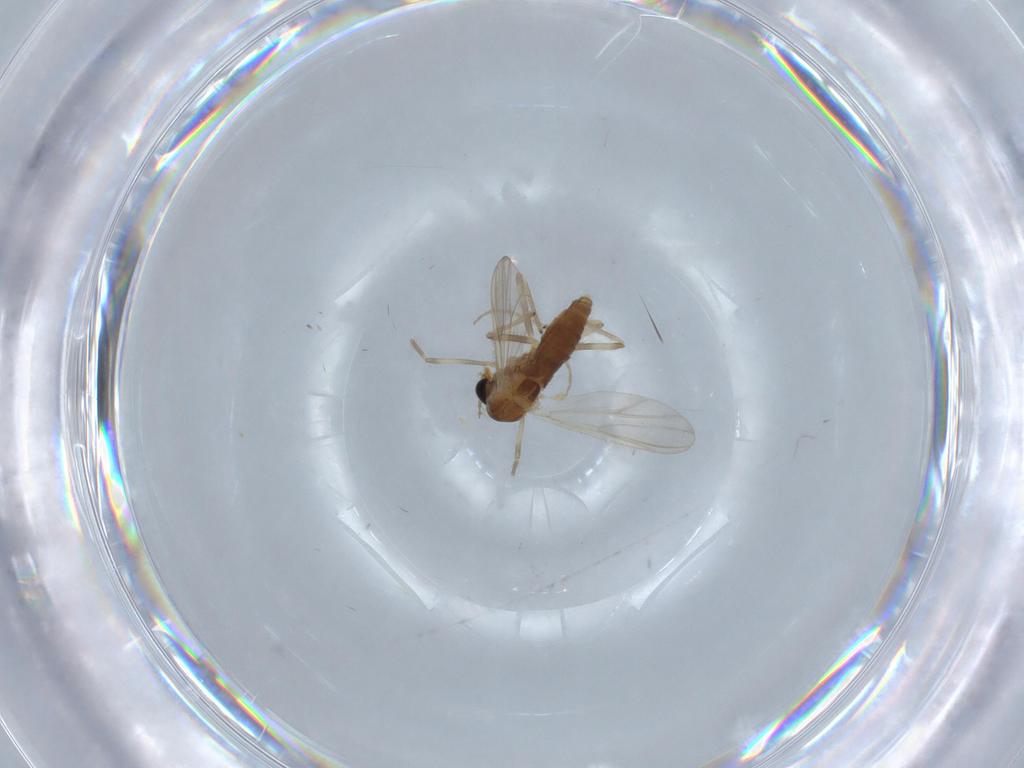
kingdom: Animalia
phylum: Arthropoda
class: Insecta
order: Diptera
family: Chironomidae
